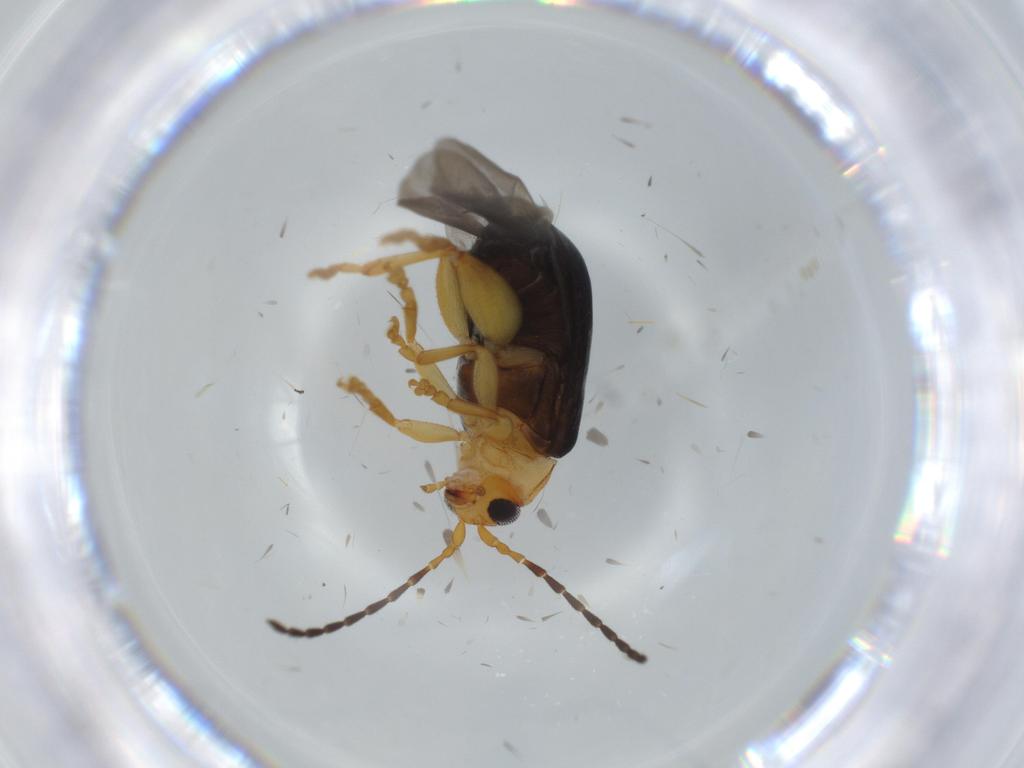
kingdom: Animalia
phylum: Arthropoda
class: Insecta
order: Coleoptera
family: Chrysomelidae
